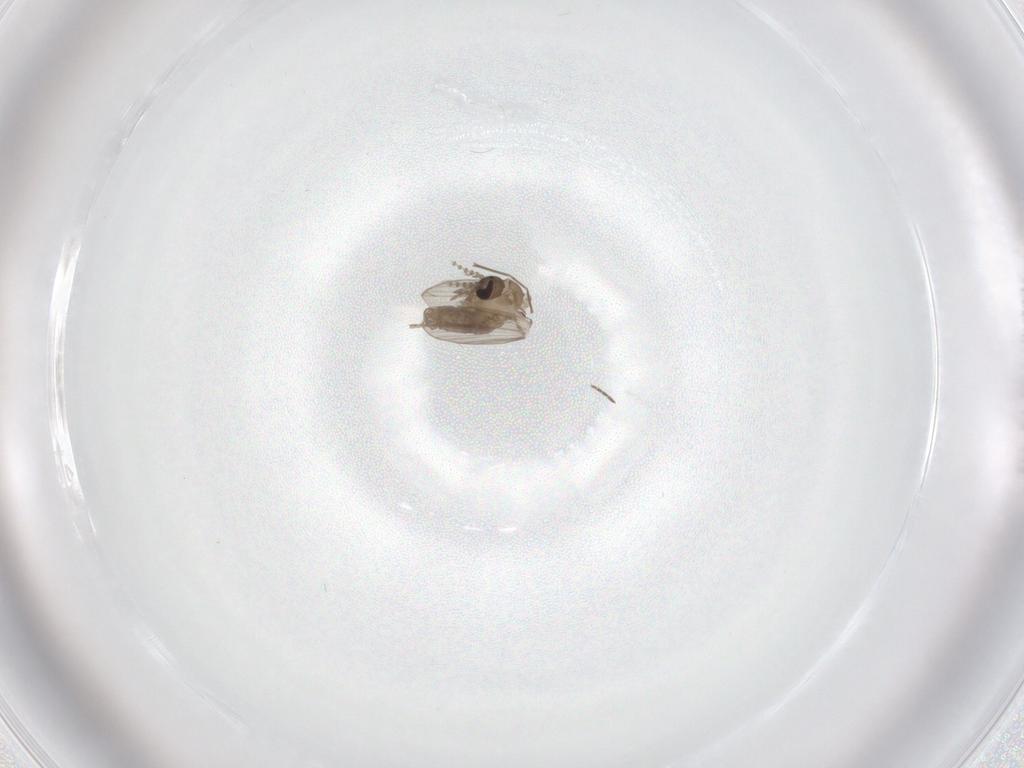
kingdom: Animalia
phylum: Arthropoda
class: Insecta
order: Diptera
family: Psychodidae
